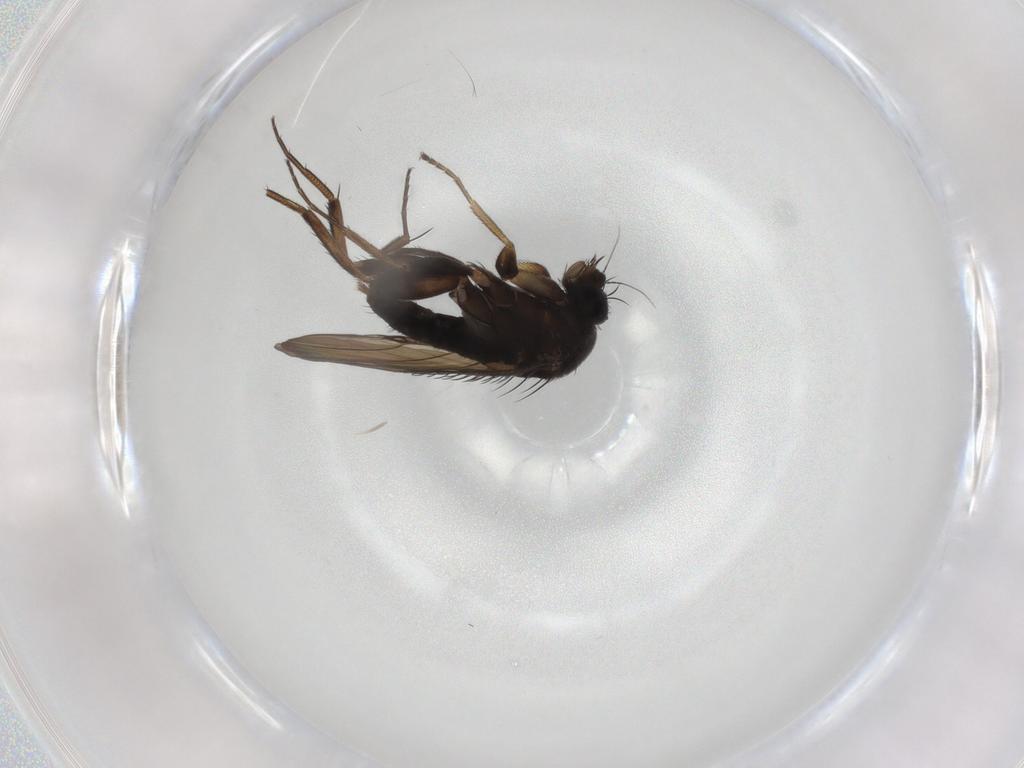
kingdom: Animalia
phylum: Arthropoda
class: Insecta
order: Diptera
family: Phoridae
